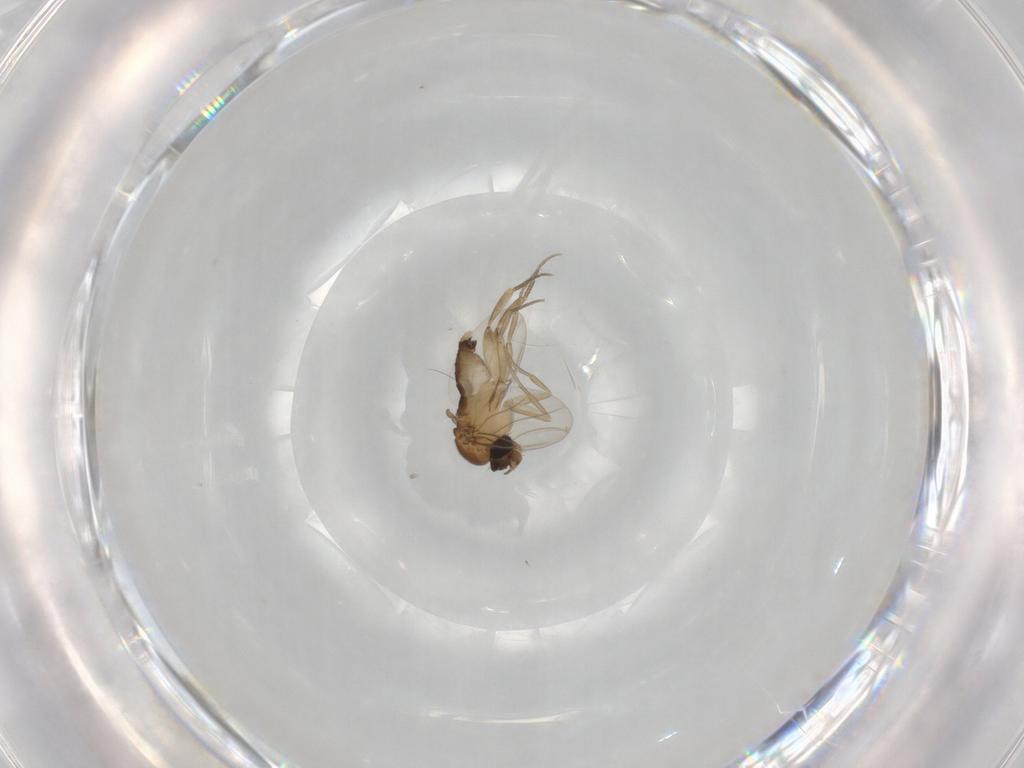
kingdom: Animalia
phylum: Arthropoda
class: Insecta
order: Diptera
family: Phoridae
